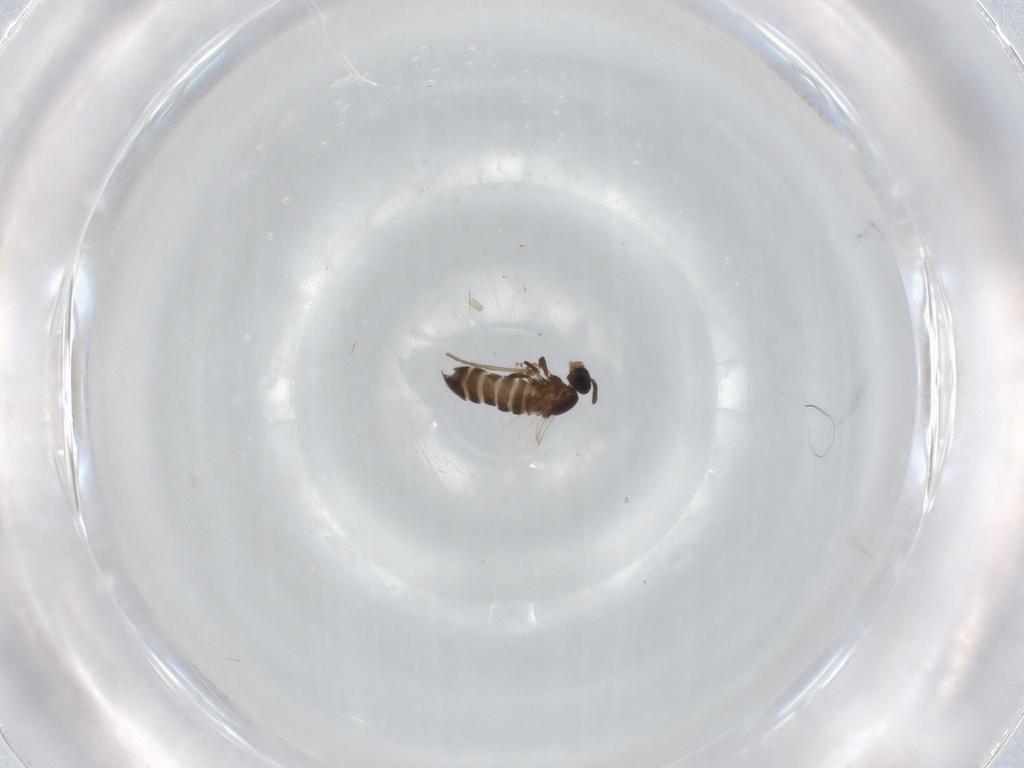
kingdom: Animalia
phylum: Arthropoda
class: Insecta
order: Diptera
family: Scatopsidae
